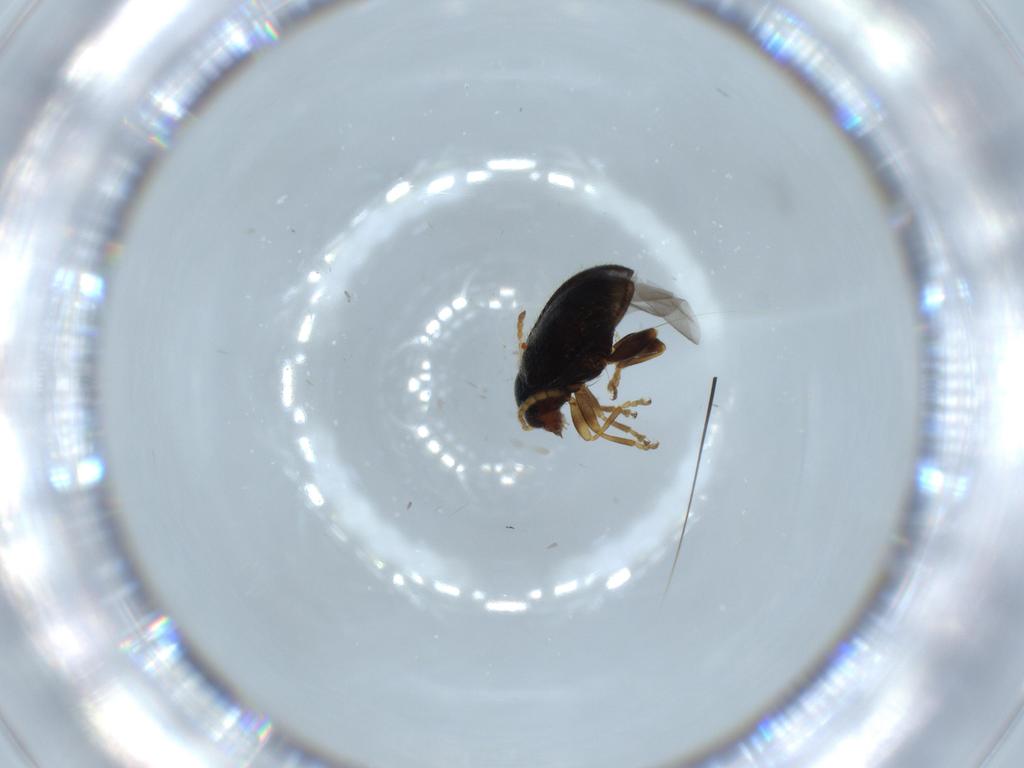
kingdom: Animalia
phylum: Arthropoda
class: Insecta
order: Coleoptera
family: Chrysomelidae
